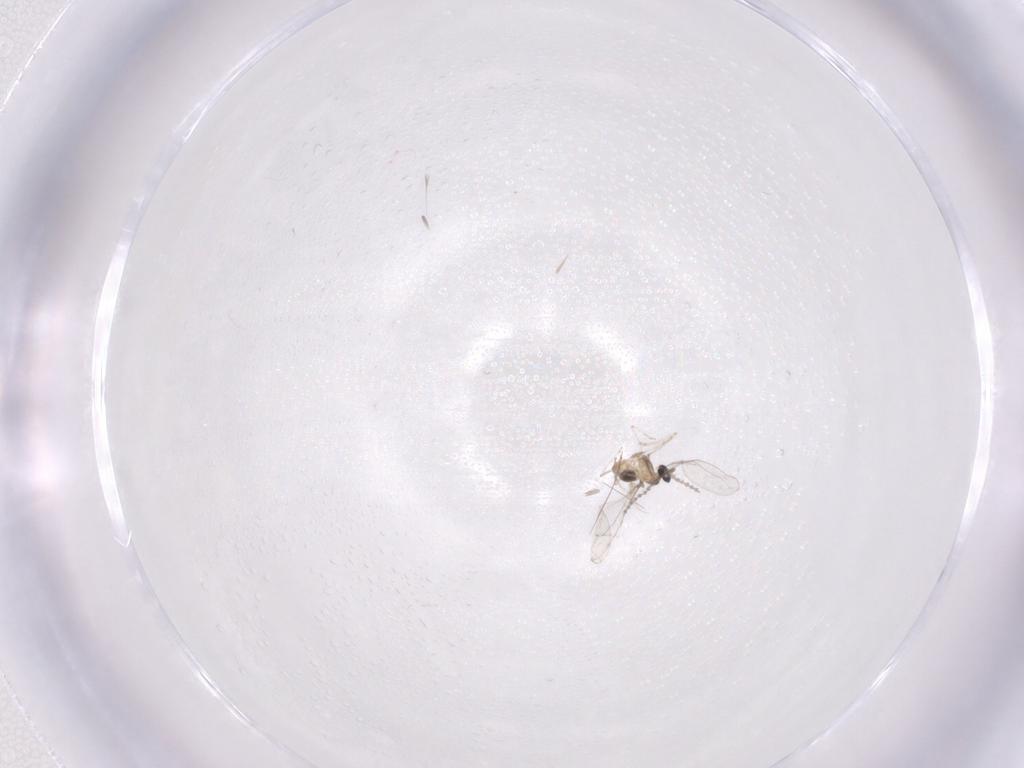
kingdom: Animalia
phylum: Arthropoda
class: Insecta
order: Diptera
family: Cecidomyiidae
